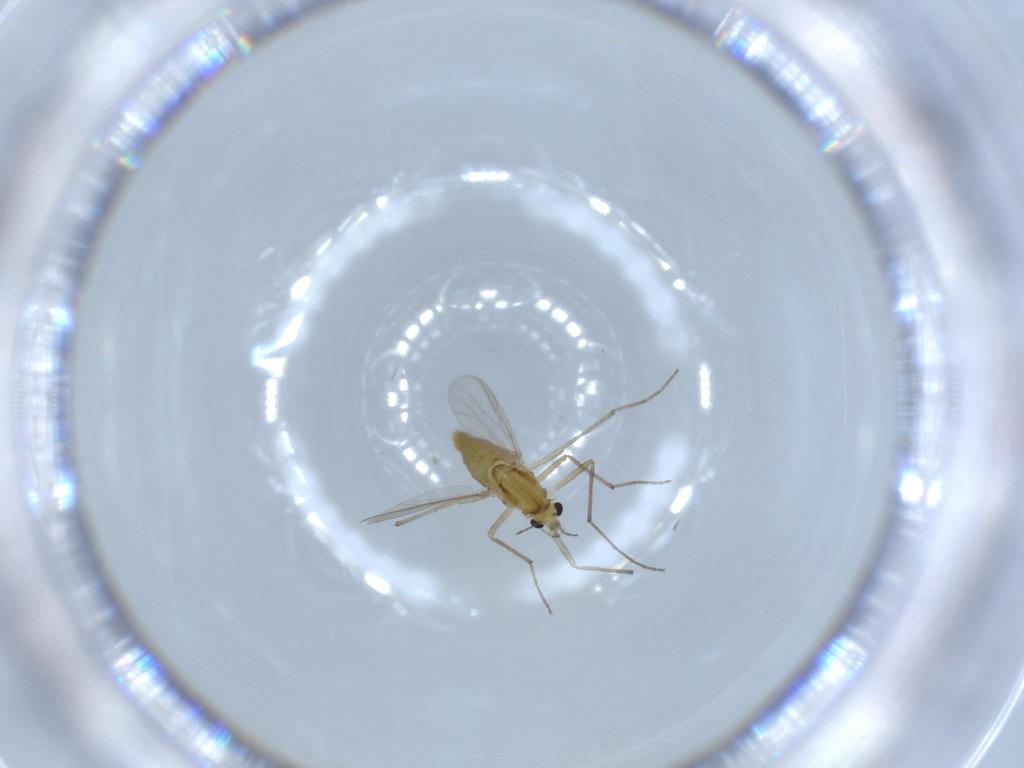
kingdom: Animalia
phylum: Arthropoda
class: Insecta
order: Diptera
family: Chironomidae
